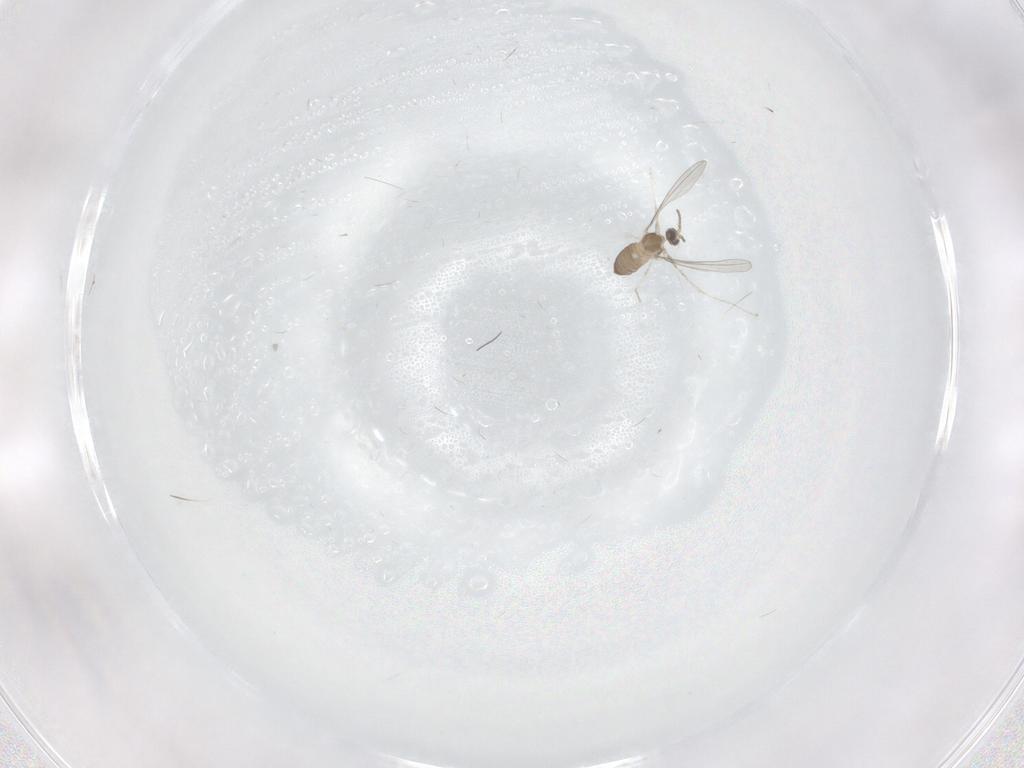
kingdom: Animalia
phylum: Arthropoda
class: Insecta
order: Diptera
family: Cecidomyiidae
